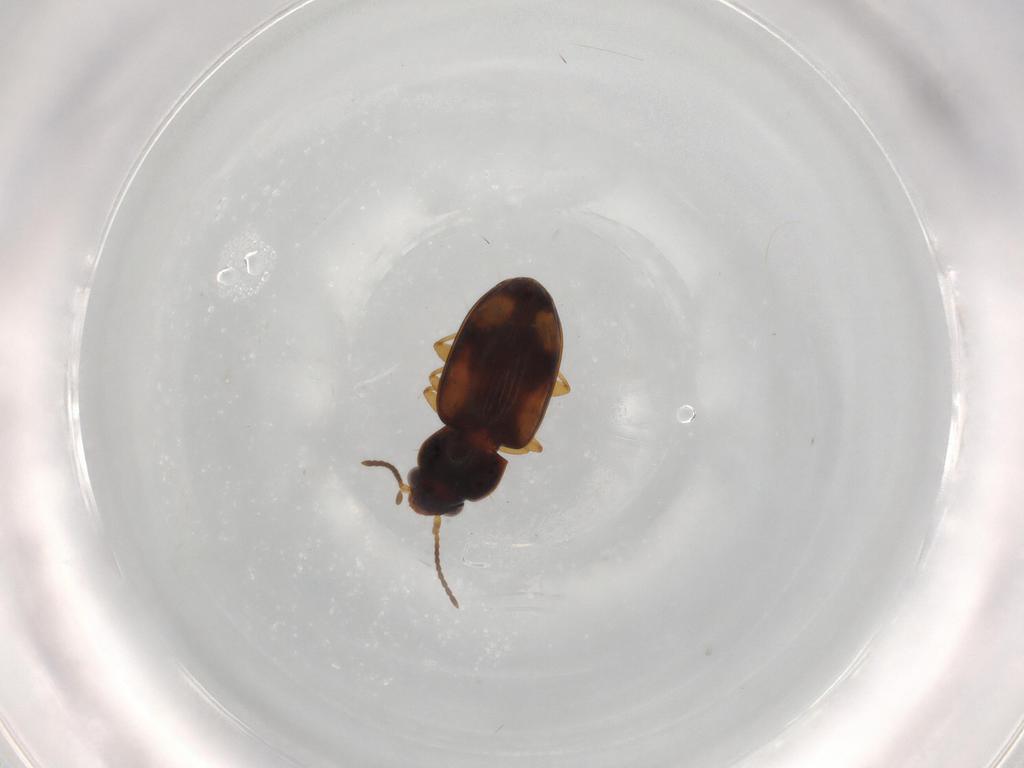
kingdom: Animalia
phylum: Arthropoda
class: Insecta
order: Coleoptera
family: Carabidae
